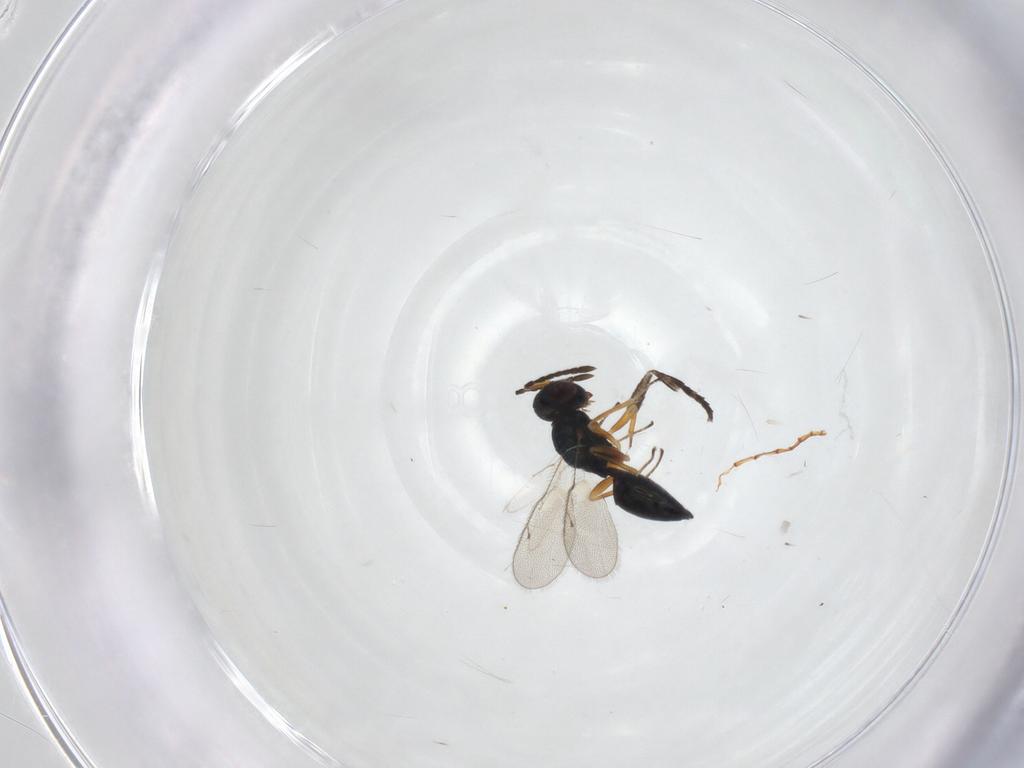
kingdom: Animalia
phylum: Arthropoda
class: Insecta
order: Hymenoptera
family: Pteromalidae
